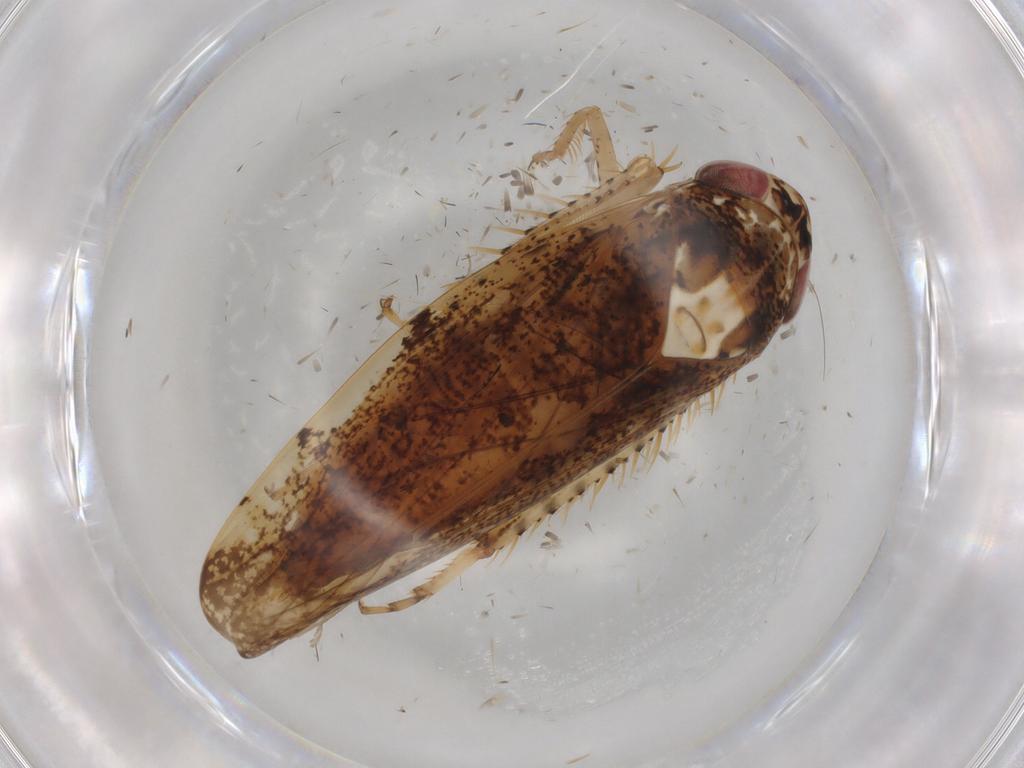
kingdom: Animalia
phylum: Arthropoda
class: Insecta
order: Hemiptera
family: Cicadellidae
